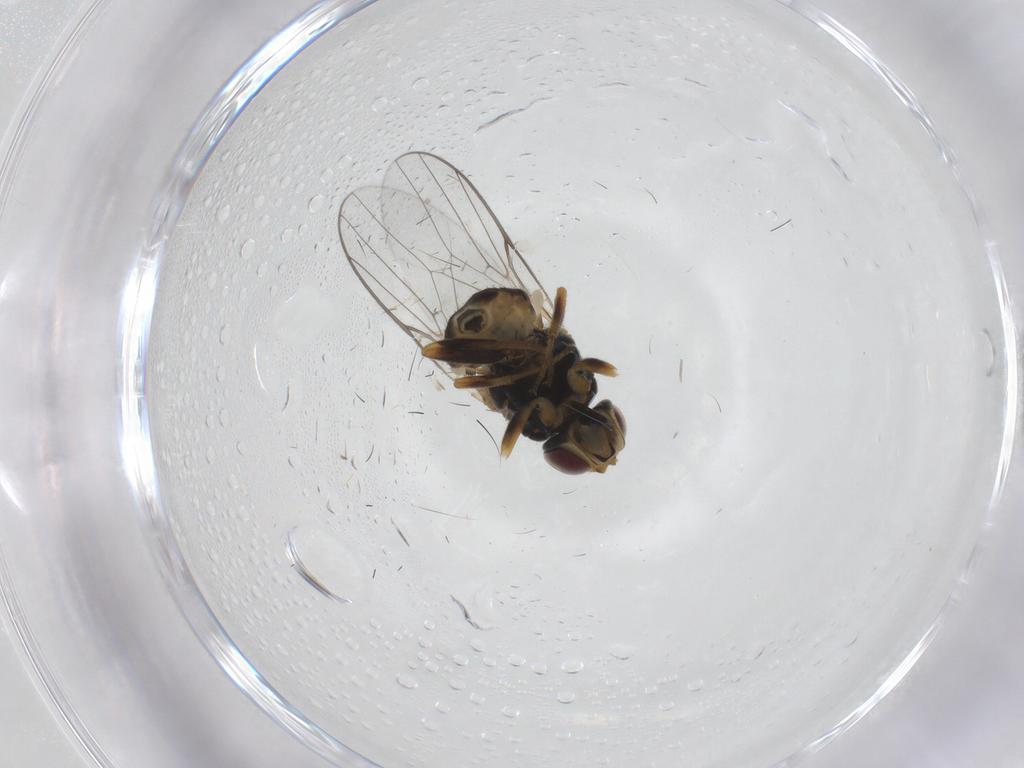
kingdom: Animalia
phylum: Arthropoda
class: Insecta
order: Diptera
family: Chloropidae
